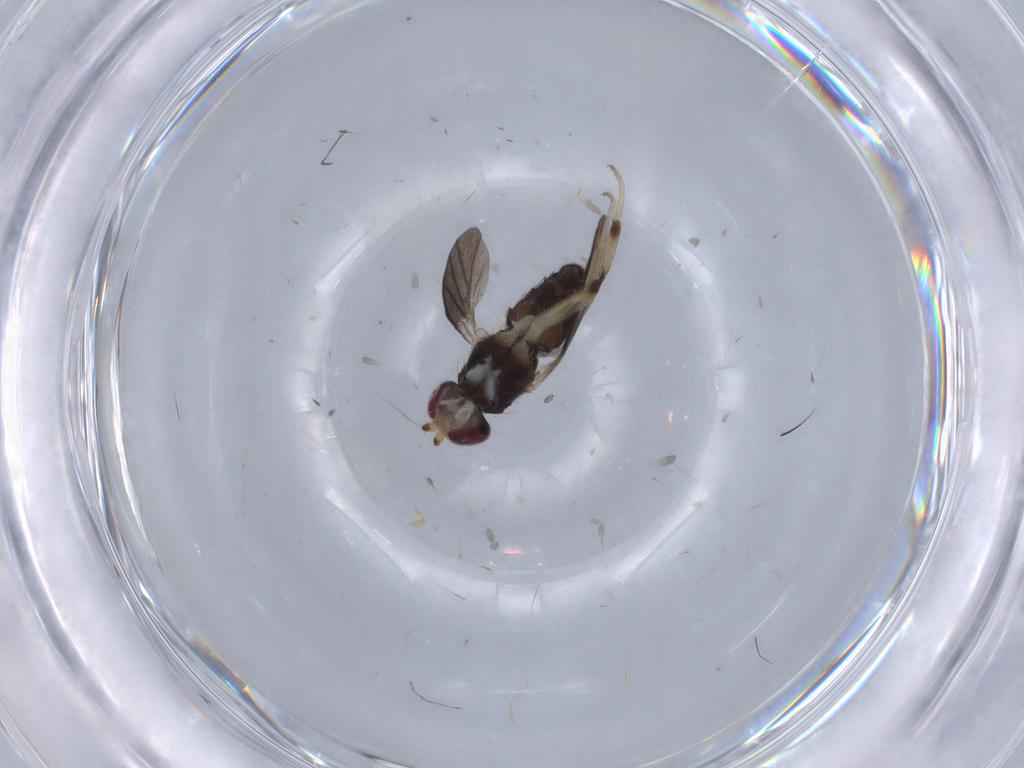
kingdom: Animalia
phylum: Arthropoda
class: Insecta
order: Diptera
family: Clusiidae
